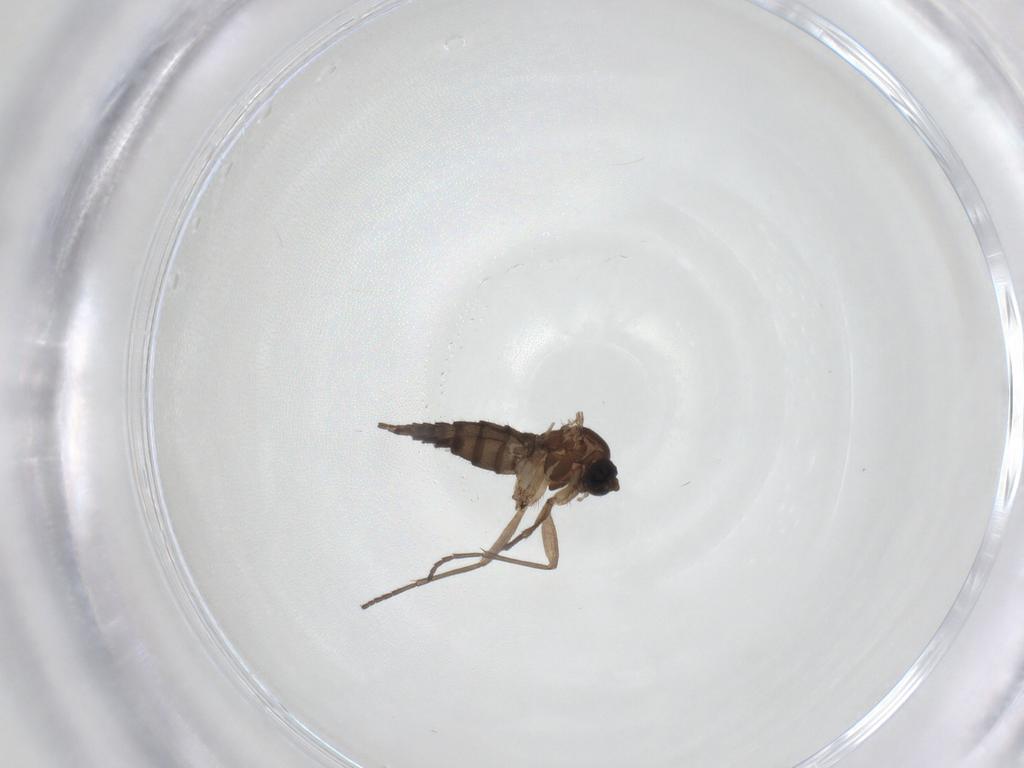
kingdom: Animalia
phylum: Arthropoda
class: Insecta
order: Diptera
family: Sciaridae
